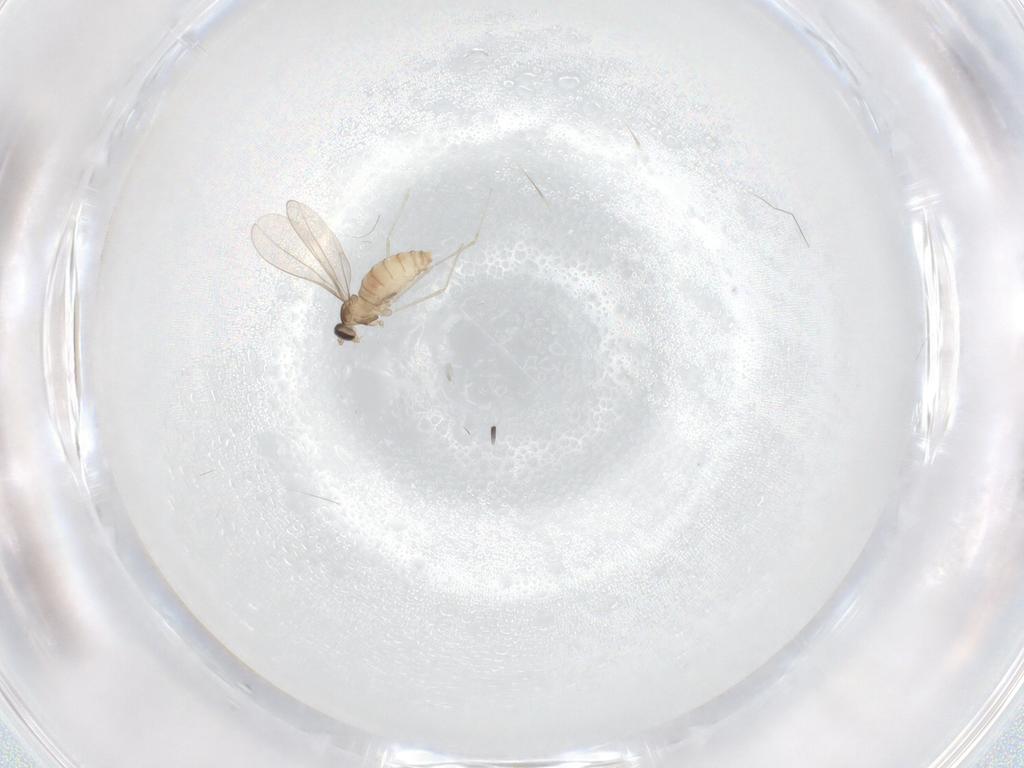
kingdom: Animalia
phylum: Arthropoda
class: Insecta
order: Diptera
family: Cecidomyiidae
